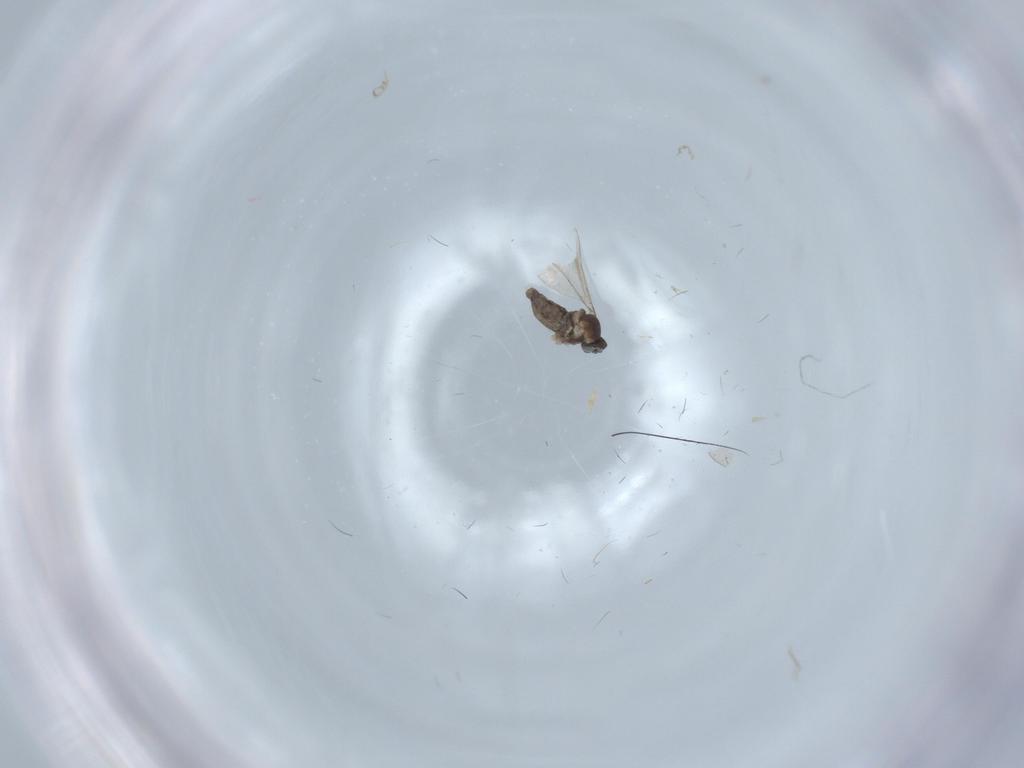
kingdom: Animalia
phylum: Arthropoda
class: Insecta
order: Diptera
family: Cecidomyiidae
